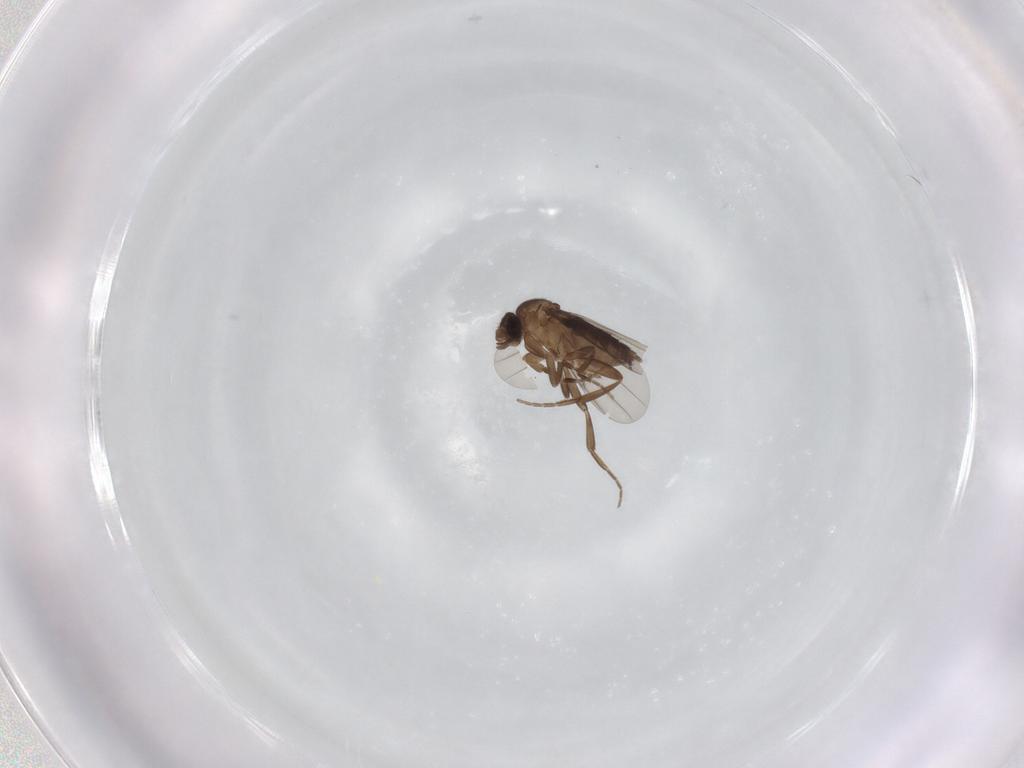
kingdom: Animalia
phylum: Arthropoda
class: Insecta
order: Diptera
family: Phoridae
